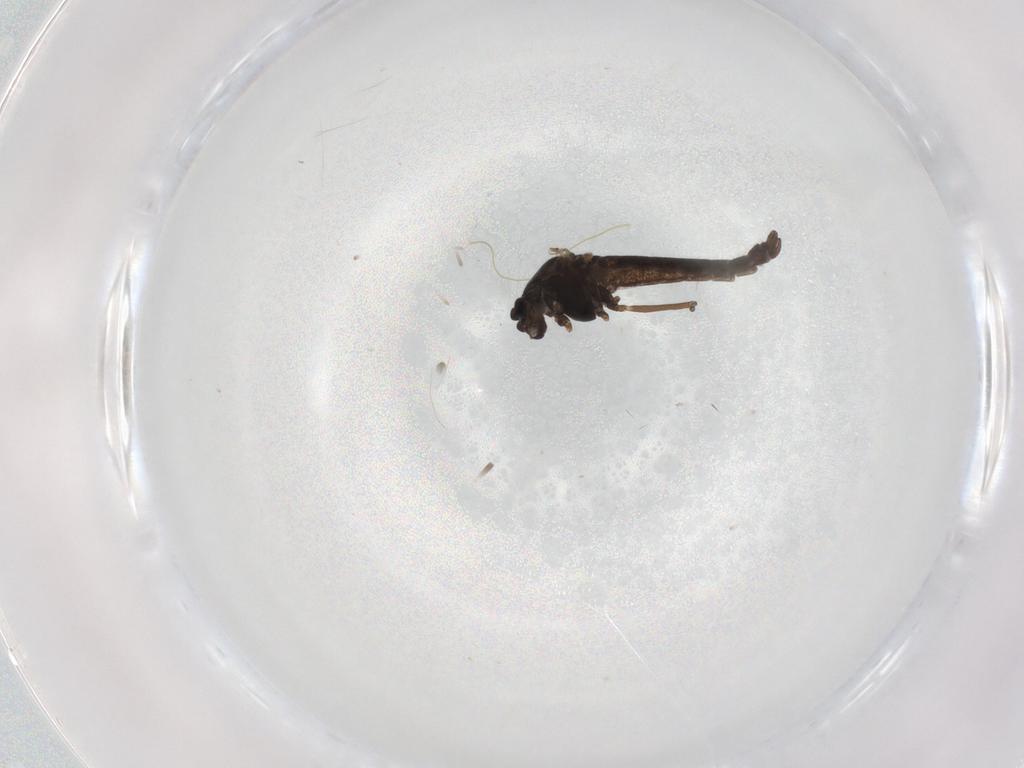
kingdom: Animalia
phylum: Arthropoda
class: Insecta
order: Diptera
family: Chironomidae
